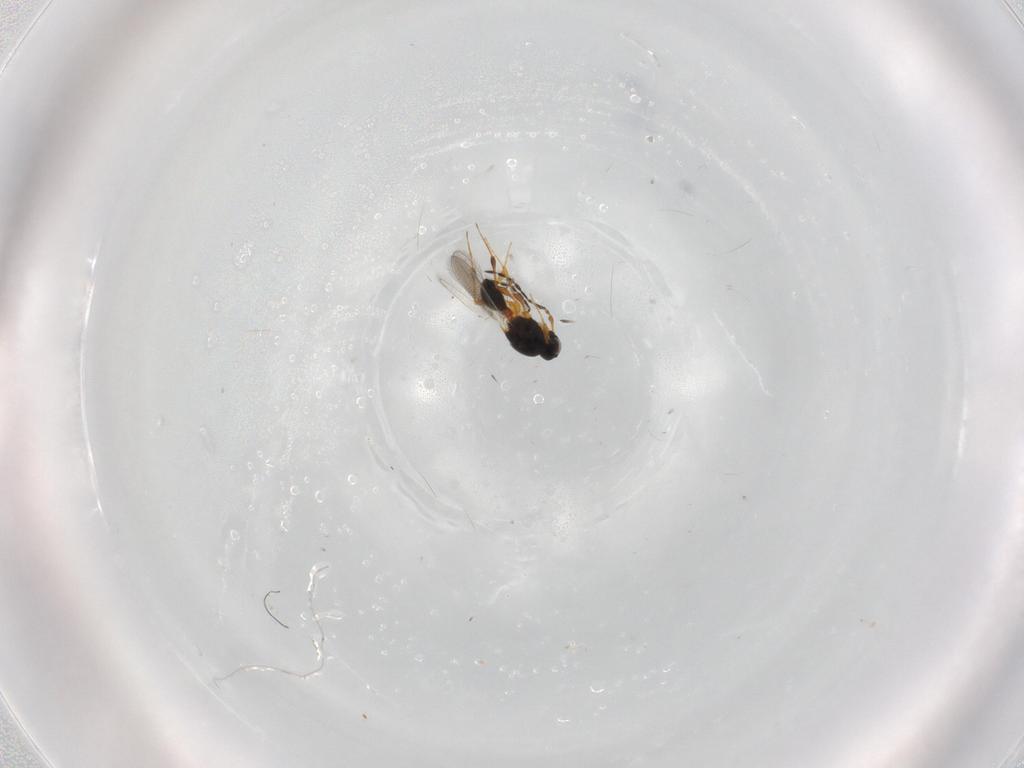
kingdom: Animalia
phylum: Arthropoda
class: Insecta
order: Hymenoptera
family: Platygastridae
